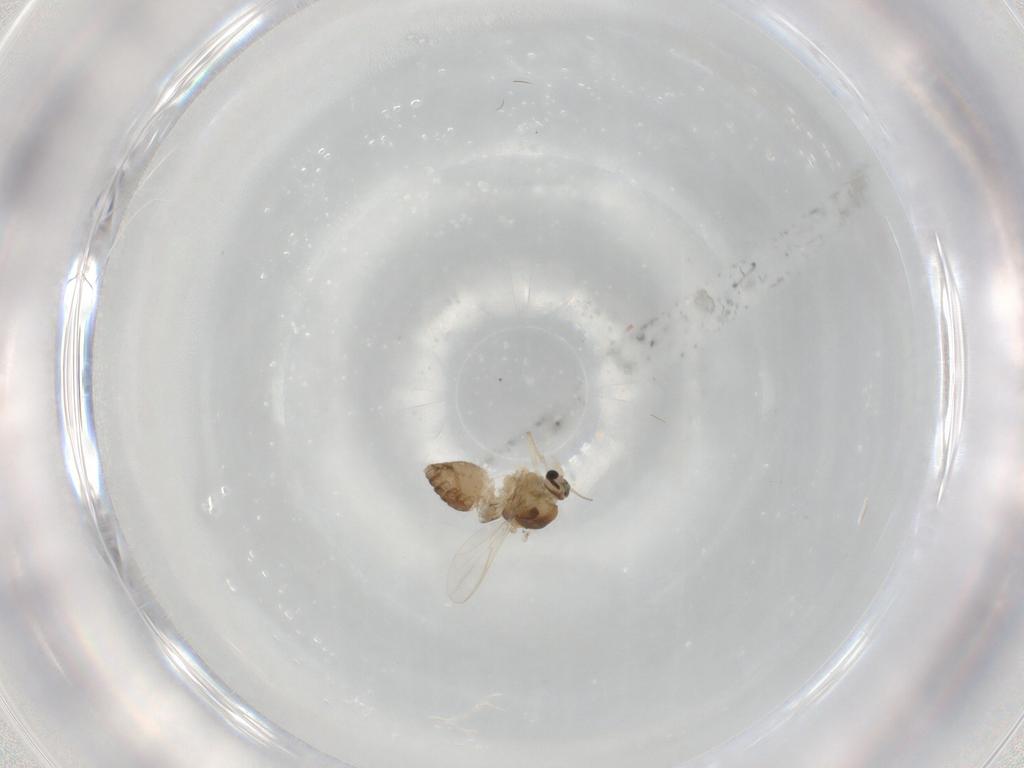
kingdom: Animalia
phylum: Arthropoda
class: Insecta
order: Diptera
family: Chironomidae
